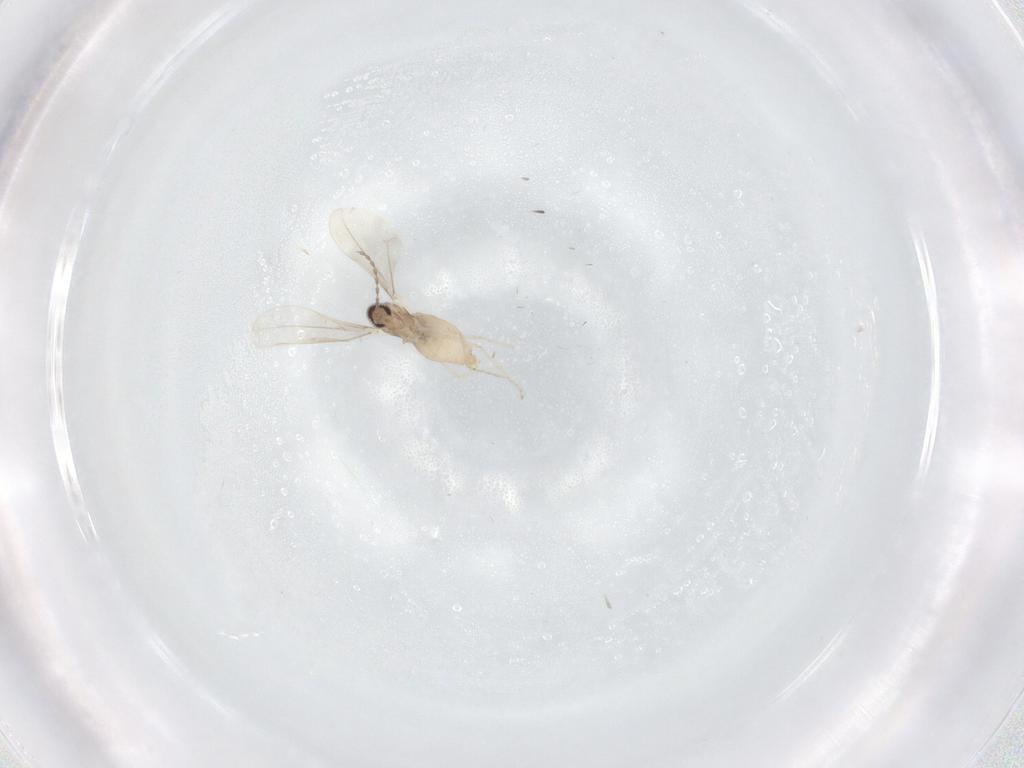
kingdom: Animalia
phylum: Arthropoda
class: Insecta
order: Diptera
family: Cecidomyiidae
